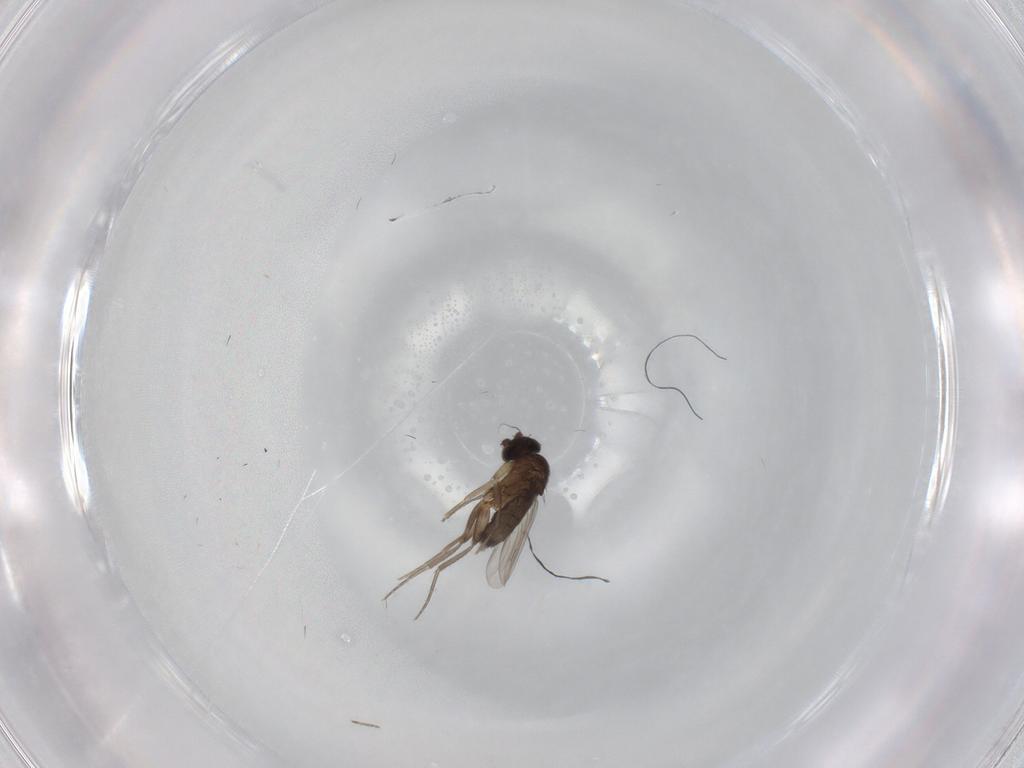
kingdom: Animalia
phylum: Arthropoda
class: Insecta
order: Diptera
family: Phoridae
